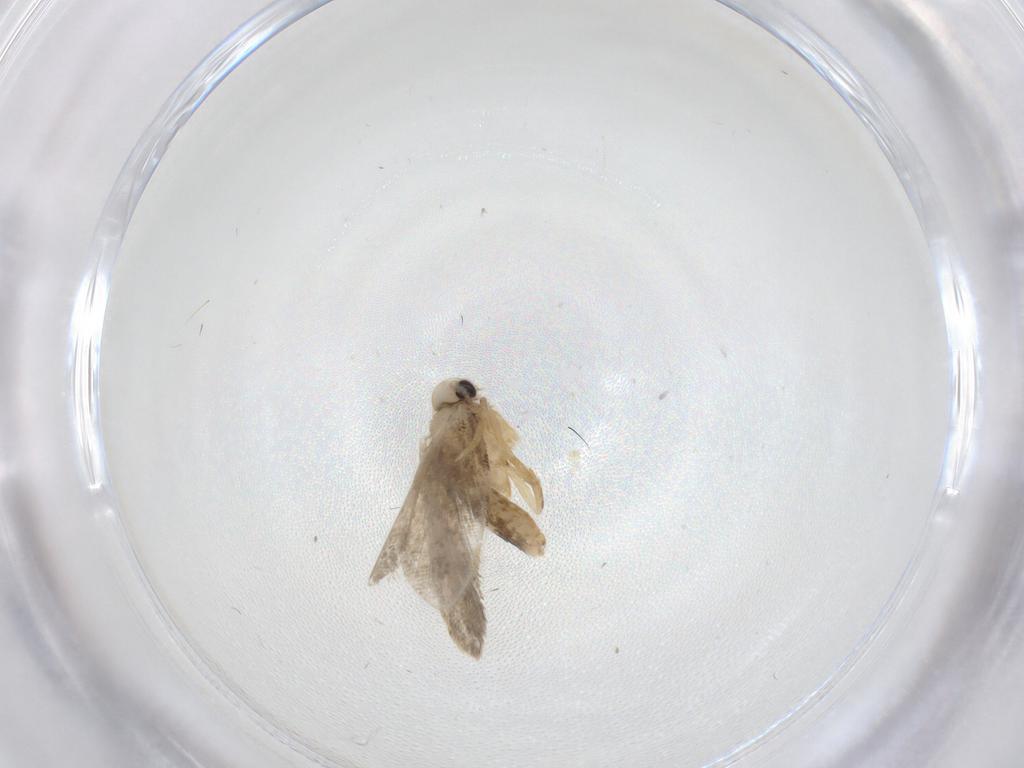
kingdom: Animalia
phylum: Arthropoda
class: Insecta
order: Lepidoptera
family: Psychidae
